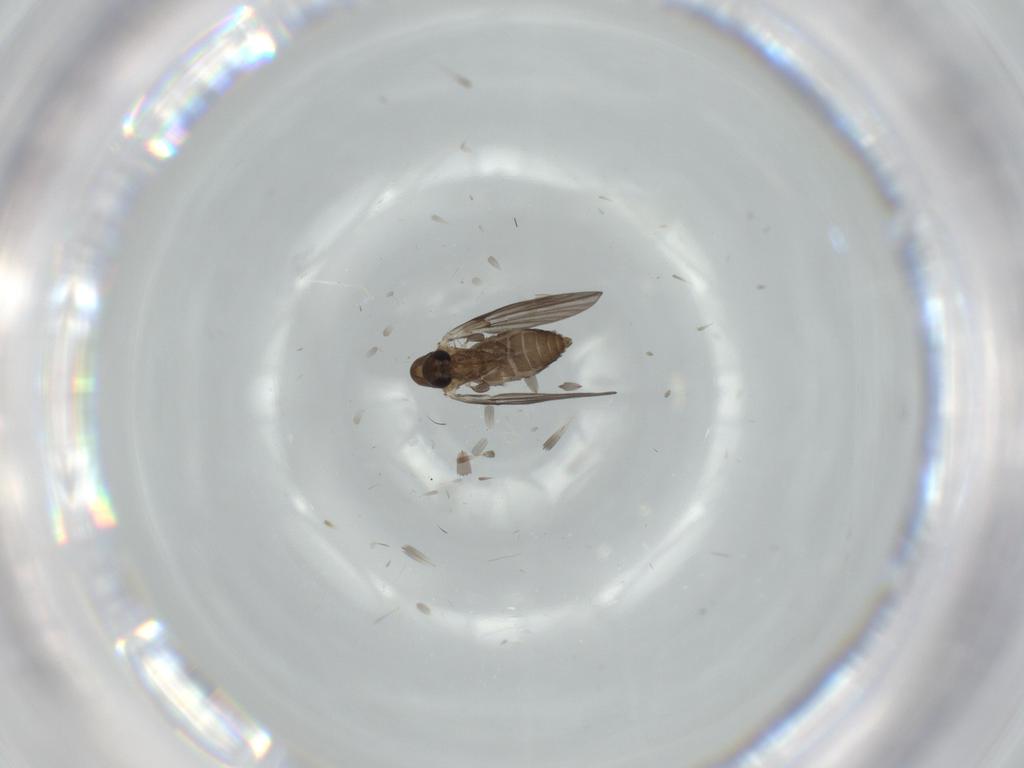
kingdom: Animalia
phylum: Arthropoda
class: Insecta
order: Diptera
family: Psychodidae
